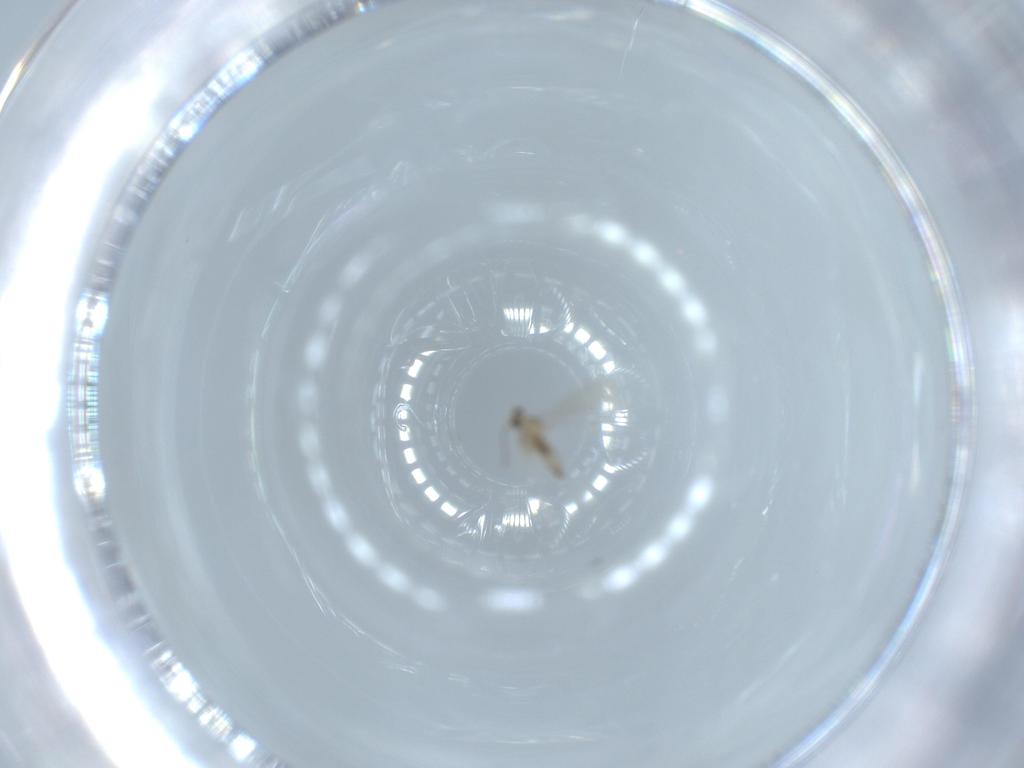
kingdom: Animalia
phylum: Arthropoda
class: Insecta
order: Diptera
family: Cecidomyiidae
